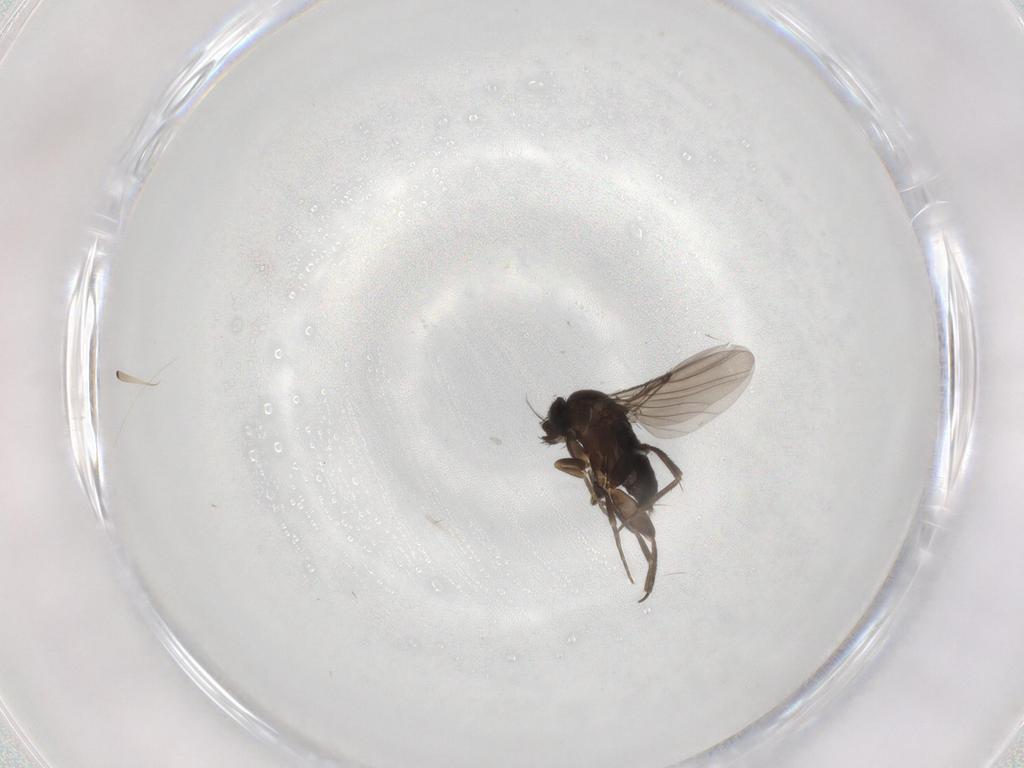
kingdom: Animalia
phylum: Arthropoda
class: Insecta
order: Diptera
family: Phoridae
